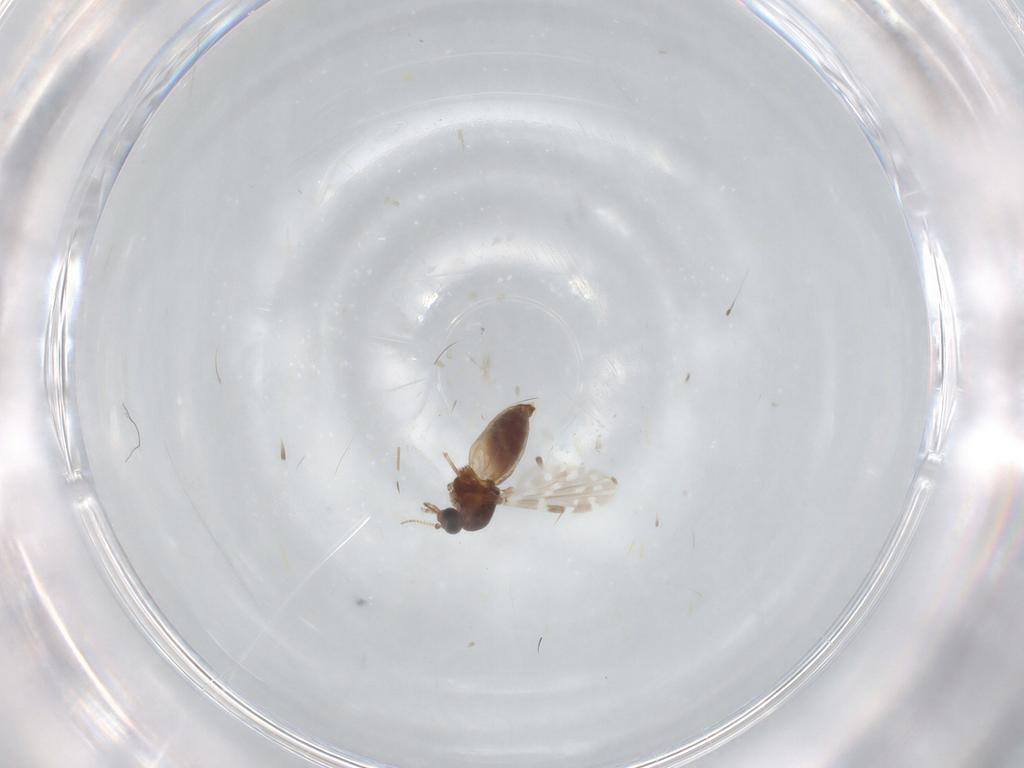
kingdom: Animalia
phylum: Arthropoda
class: Insecta
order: Diptera
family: Ceratopogonidae
